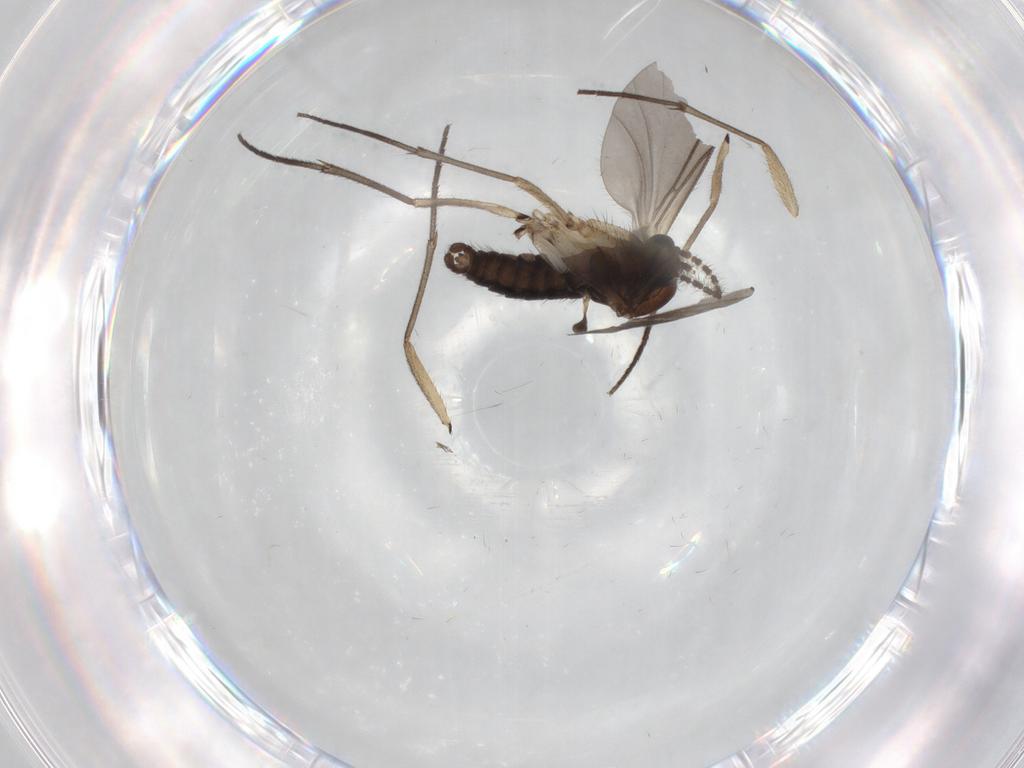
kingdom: Animalia
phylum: Arthropoda
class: Insecta
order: Diptera
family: Sciaridae
